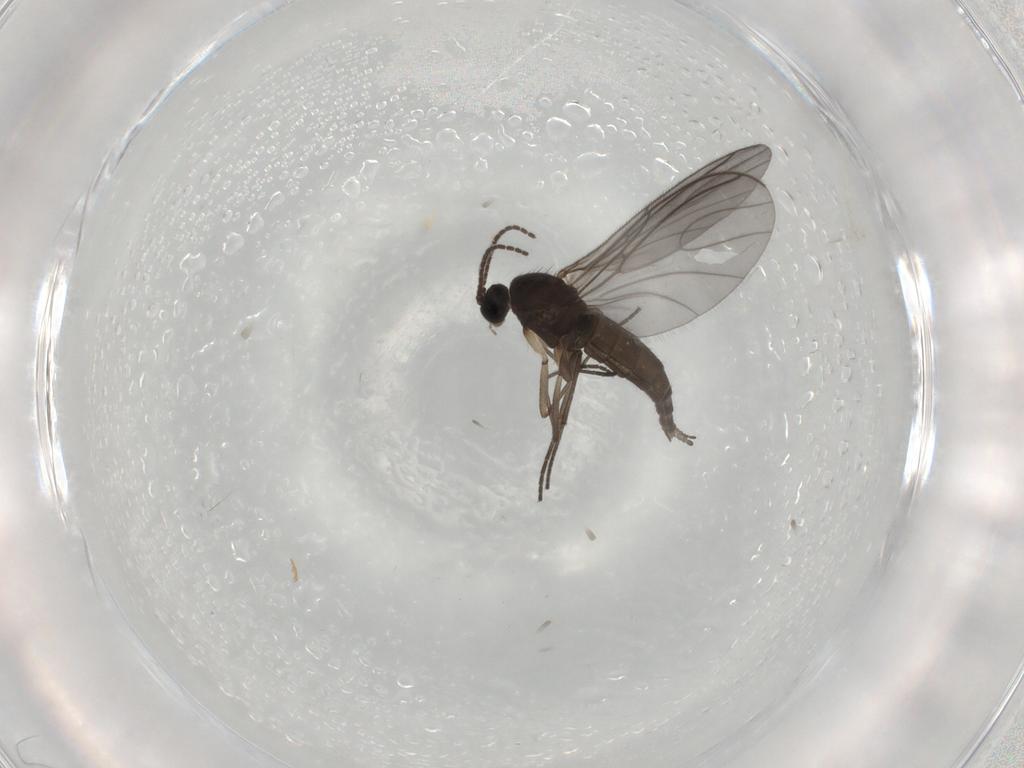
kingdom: Animalia
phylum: Arthropoda
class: Insecta
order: Diptera
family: Sciaridae
